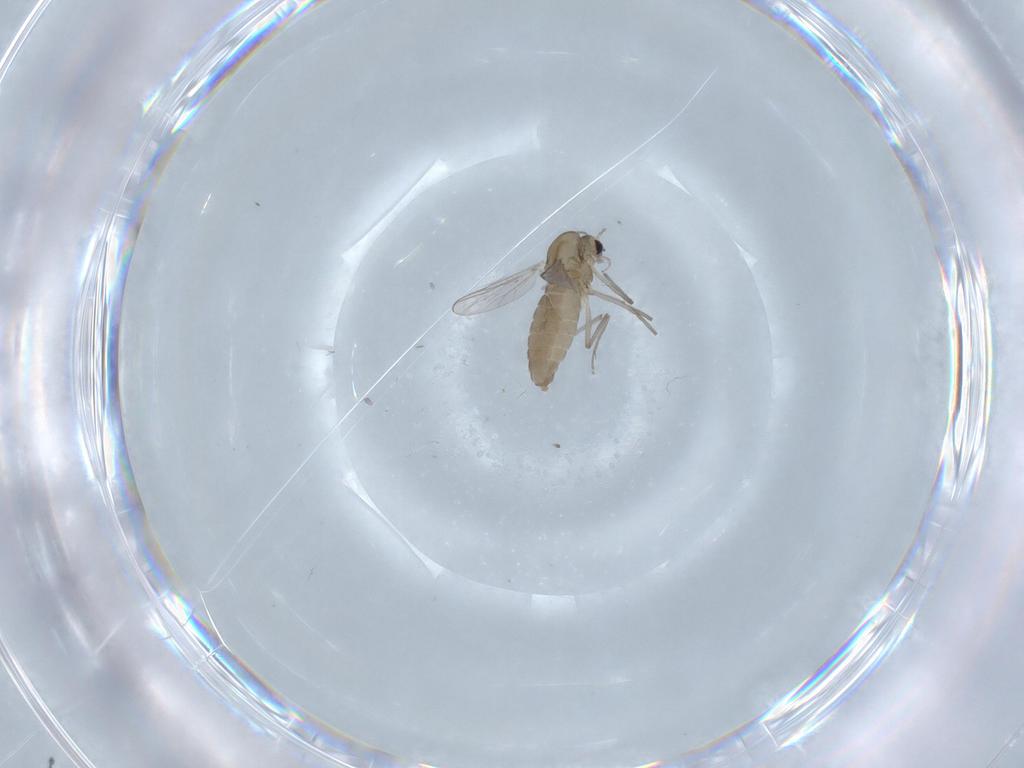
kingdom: Animalia
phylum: Arthropoda
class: Insecta
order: Diptera
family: Chironomidae
